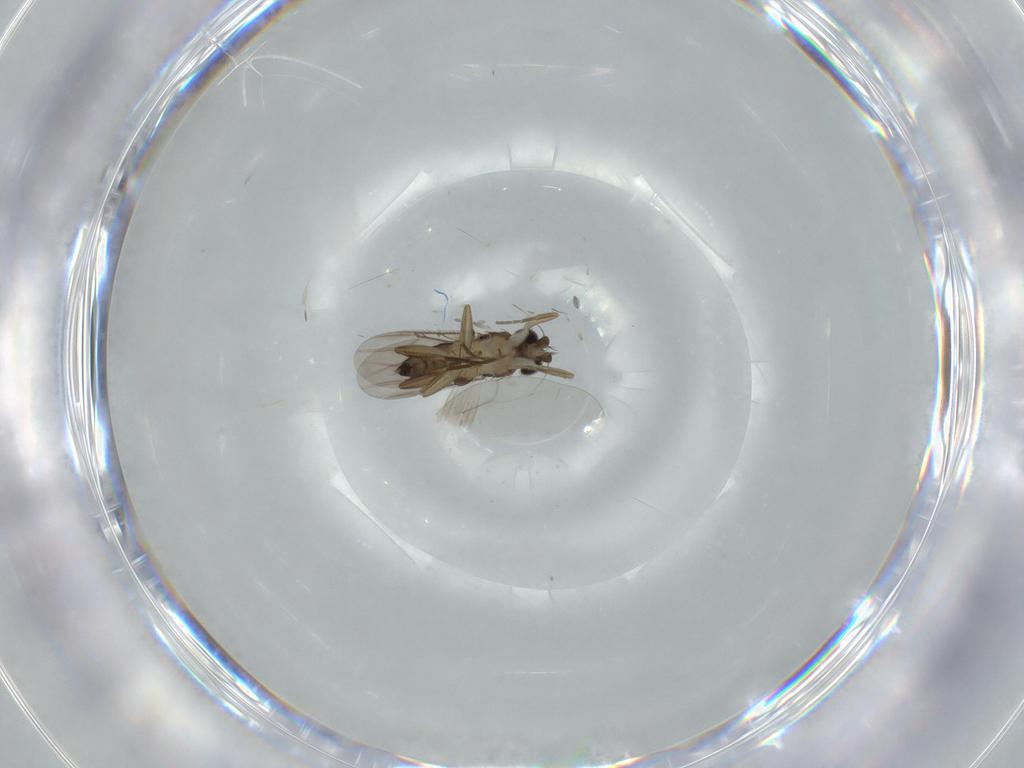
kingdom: Animalia
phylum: Arthropoda
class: Insecta
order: Diptera
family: Phoridae
